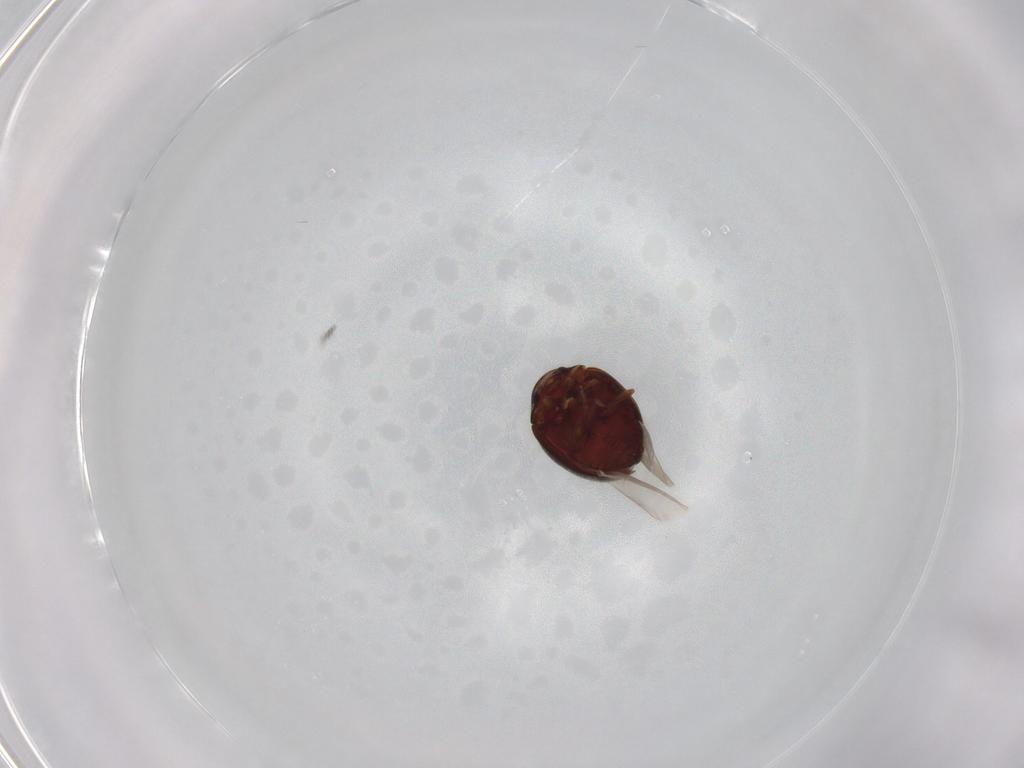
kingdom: Animalia
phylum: Arthropoda
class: Insecta
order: Coleoptera
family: Coccinellidae
